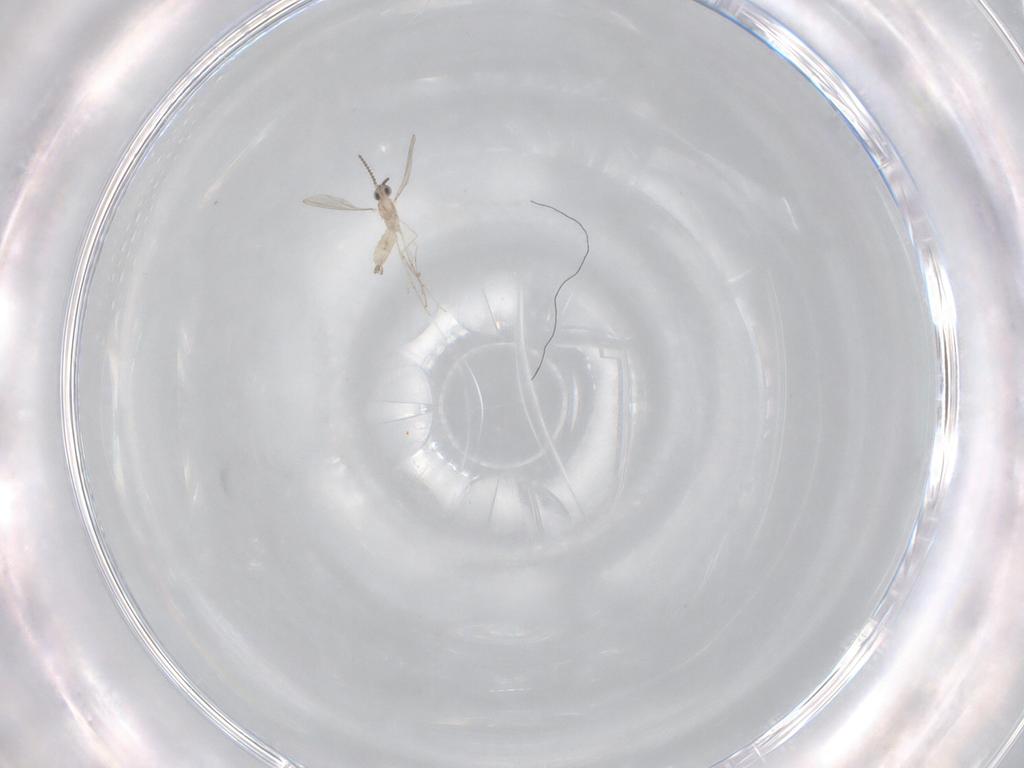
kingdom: Animalia
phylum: Arthropoda
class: Insecta
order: Diptera
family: Cecidomyiidae
